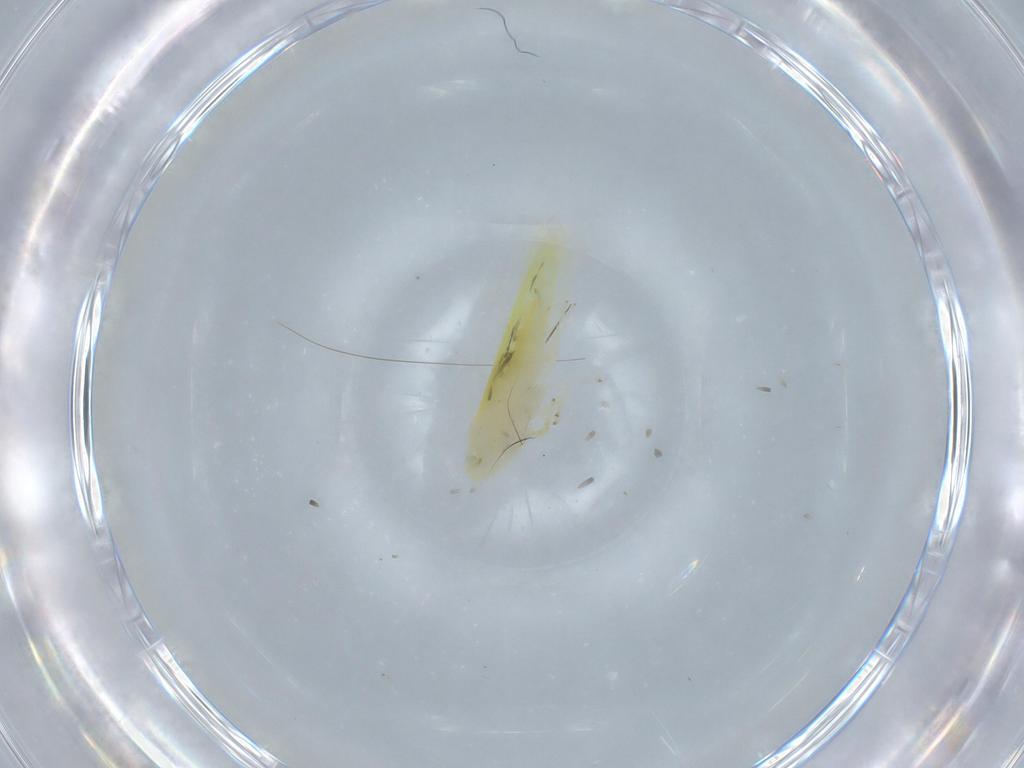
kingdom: Animalia
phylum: Arthropoda
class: Insecta
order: Hemiptera
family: Cicadellidae
